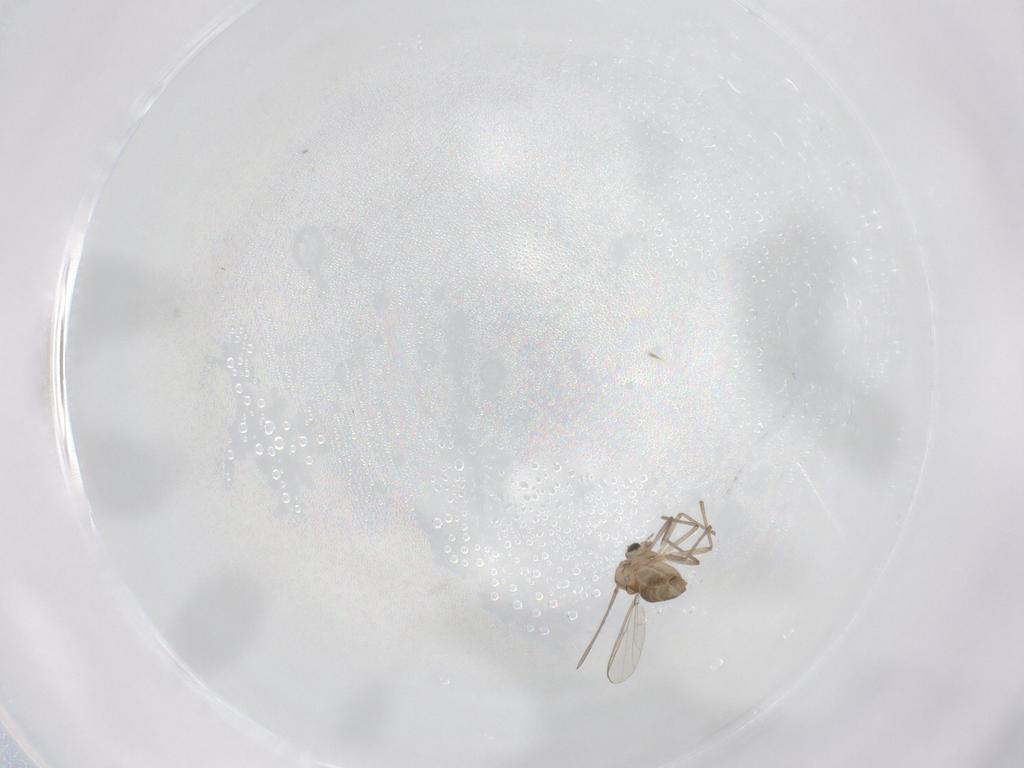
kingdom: Animalia
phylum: Arthropoda
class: Insecta
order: Diptera
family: Chironomidae
